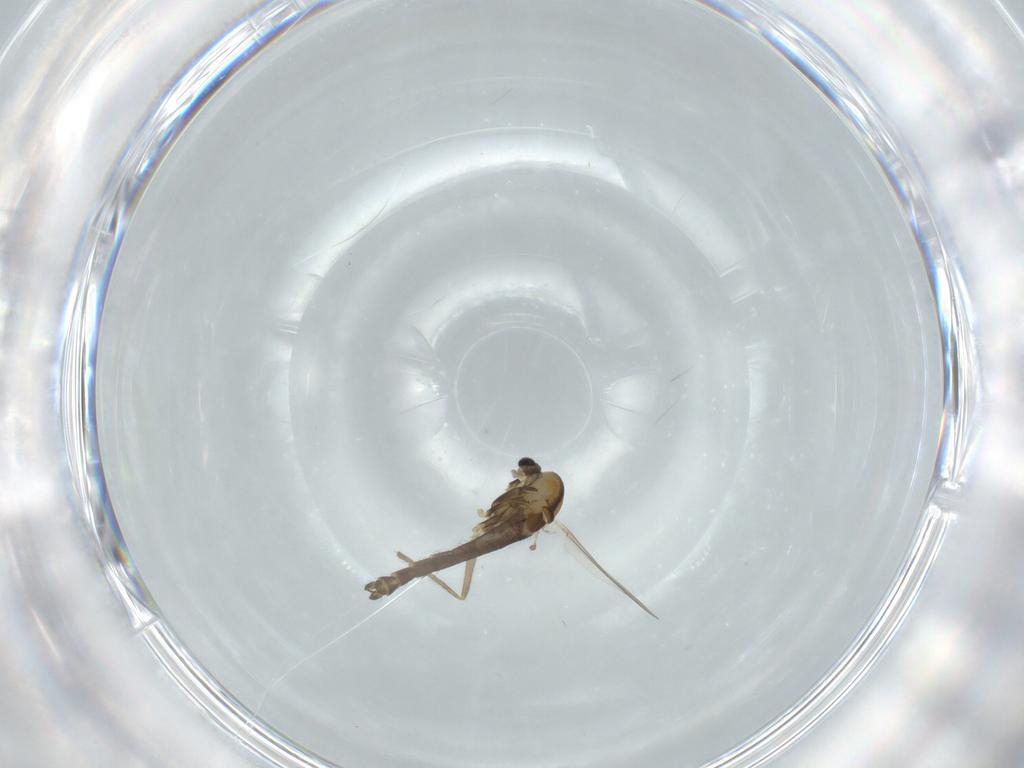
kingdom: Animalia
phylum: Arthropoda
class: Insecta
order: Diptera
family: Chironomidae
